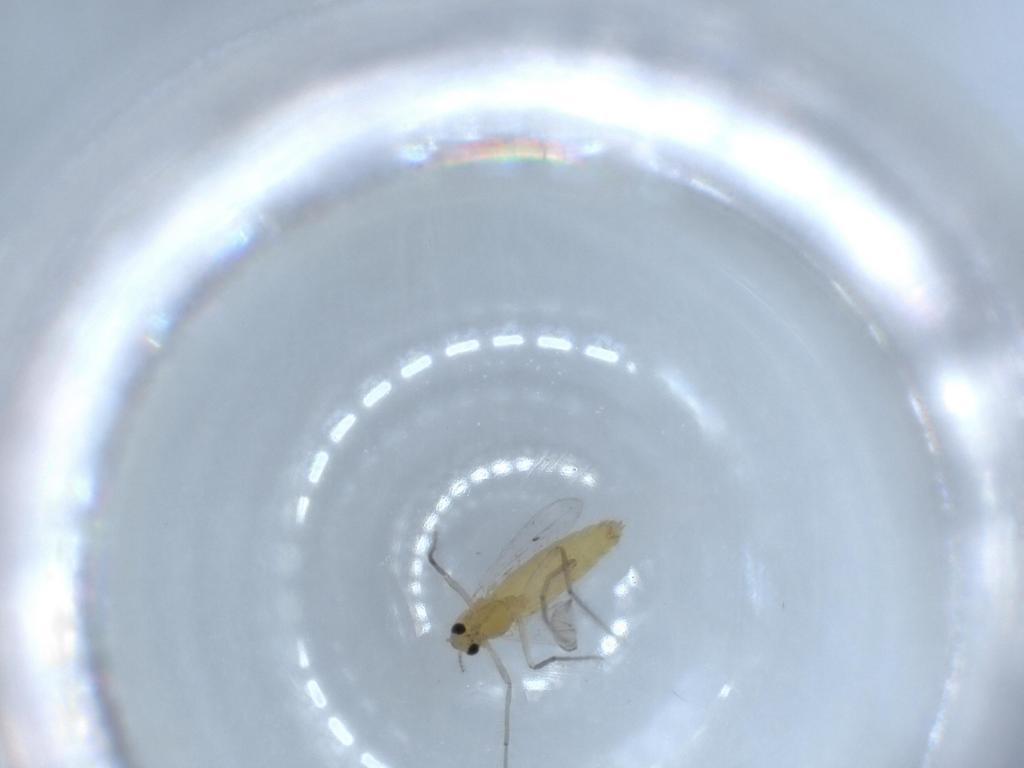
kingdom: Animalia
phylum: Arthropoda
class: Insecta
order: Diptera
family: Chironomidae
